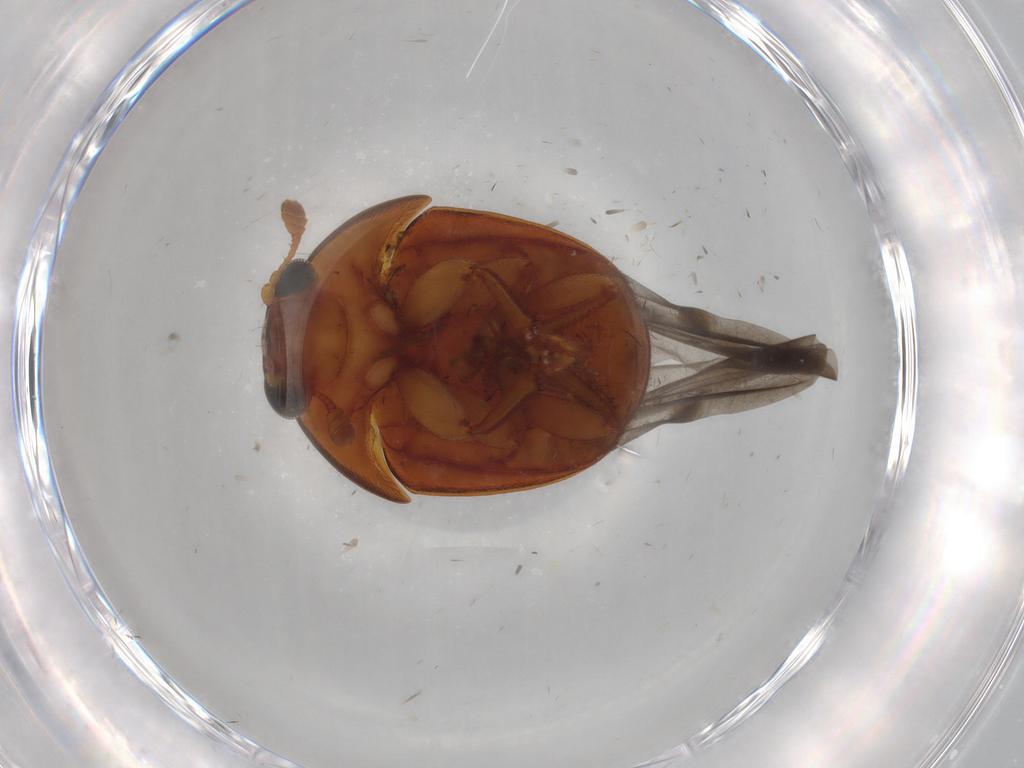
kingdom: Animalia
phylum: Arthropoda
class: Insecta
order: Coleoptera
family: Nitidulidae
